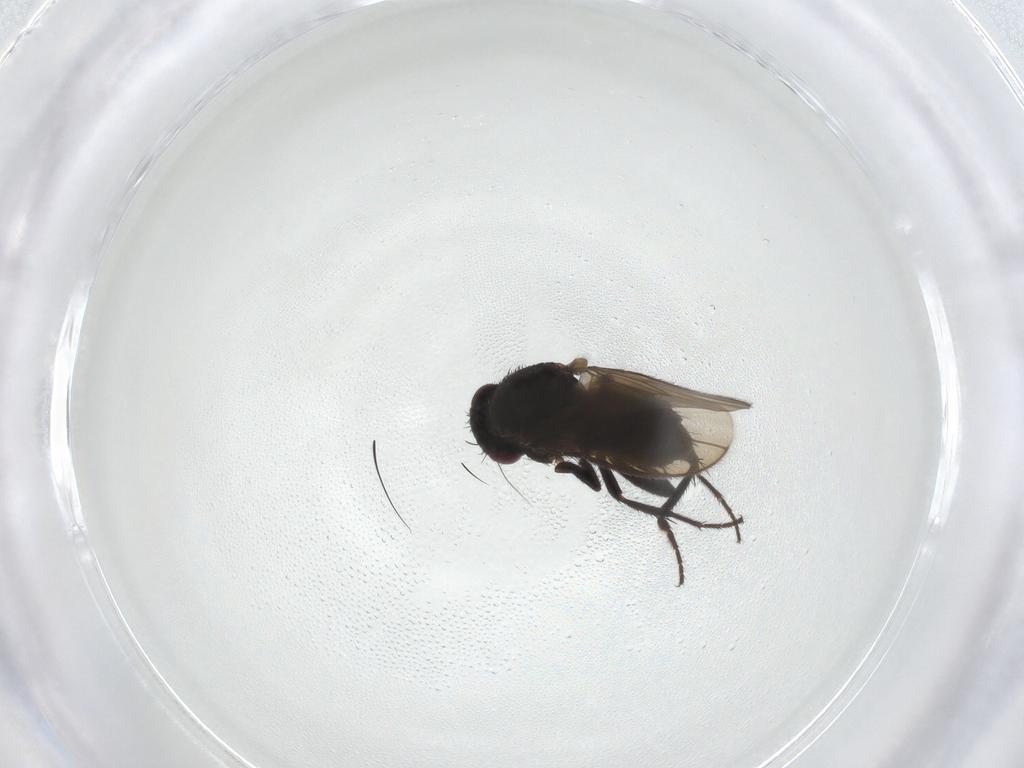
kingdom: Animalia
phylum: Arthropoda
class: Insecta
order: Diptera
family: Sphaeroceridae
